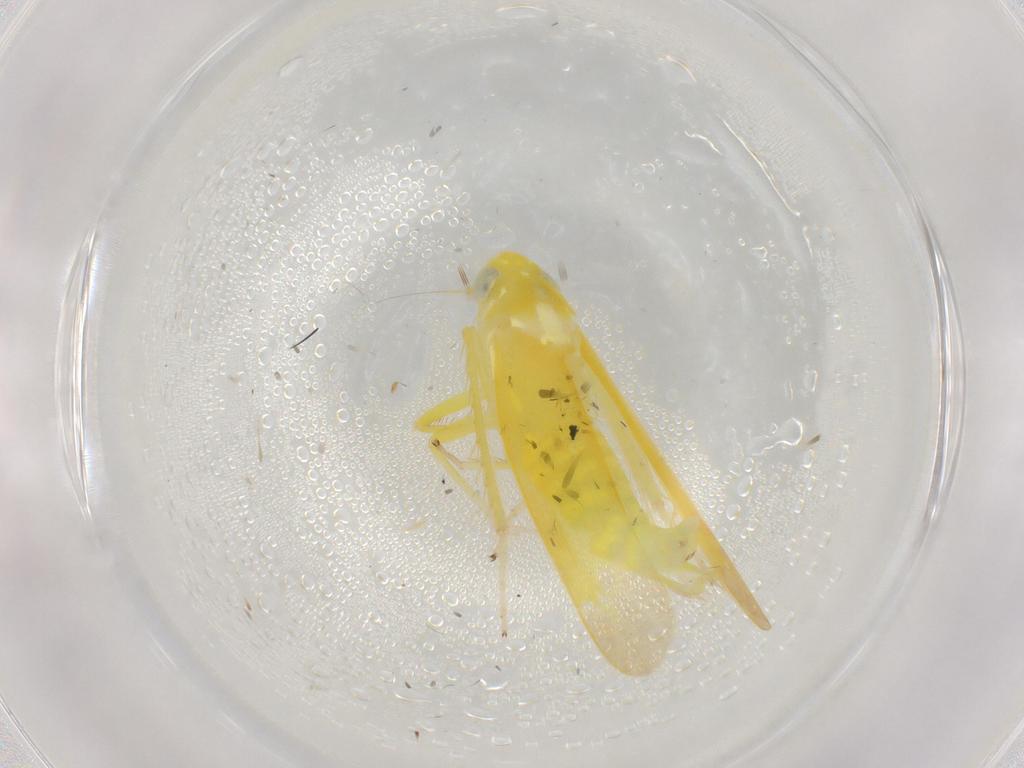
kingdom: Animalia
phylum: Arthropoda
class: Insecta
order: Hemiptera
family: Cicadellidae
